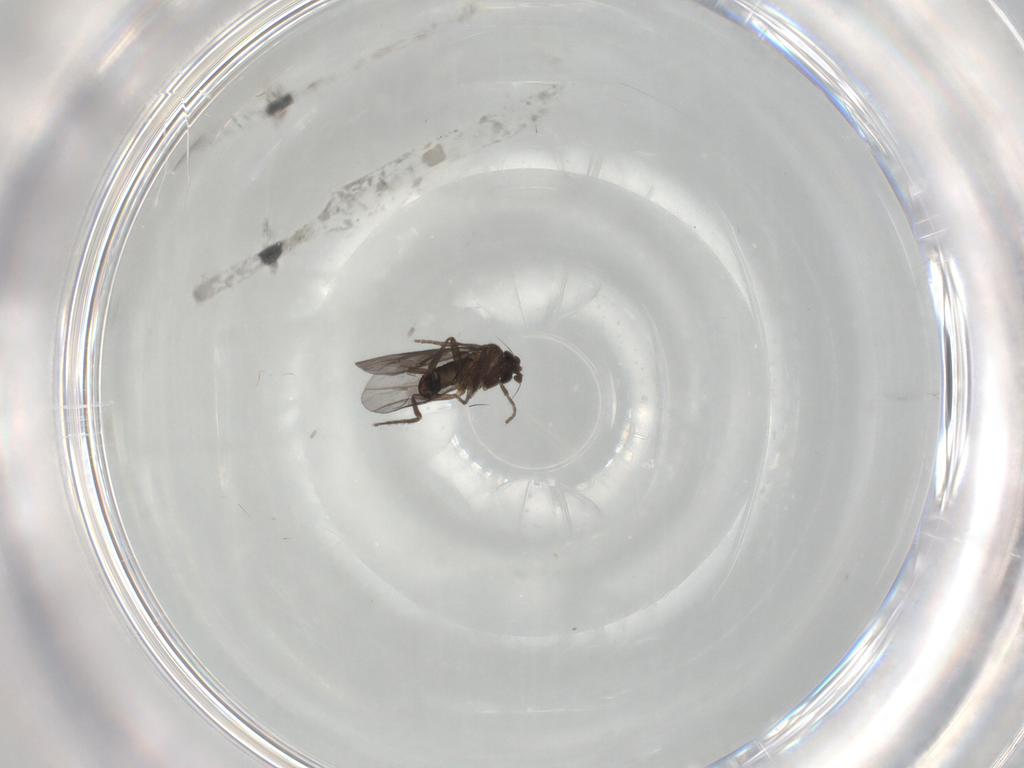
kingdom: Animalia
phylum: Arthropoda
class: Insecta
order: Diptera
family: Phoridae
